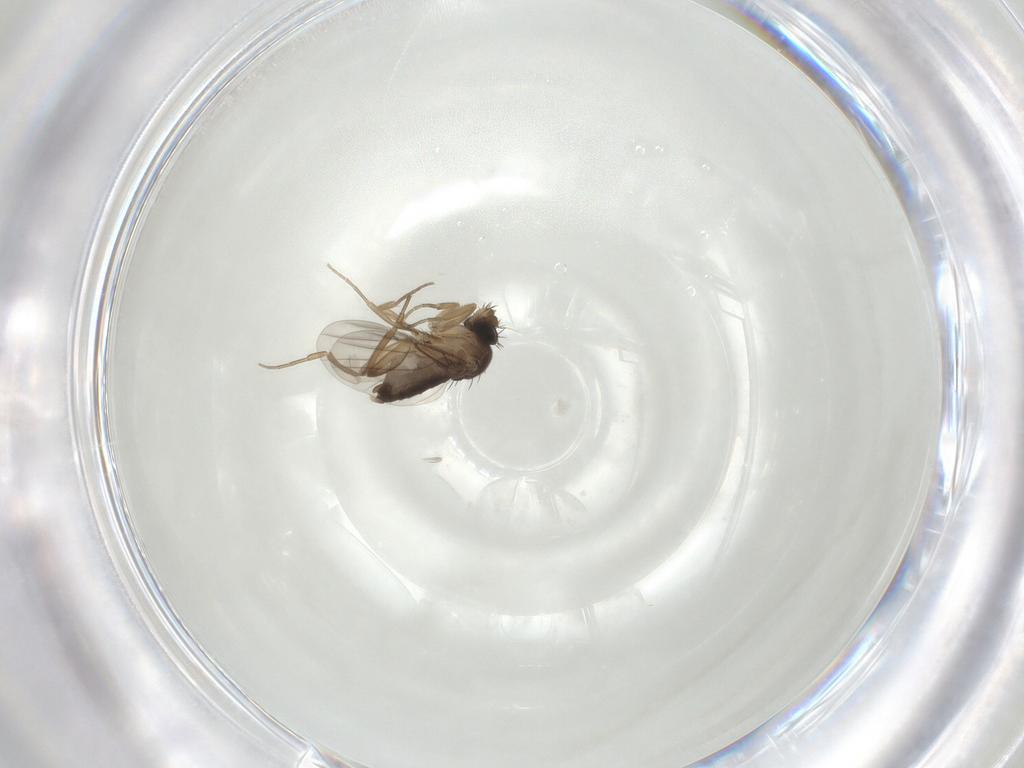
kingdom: Animalia
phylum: Arthropoda
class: Insecta
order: Diptera
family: Phoridae
